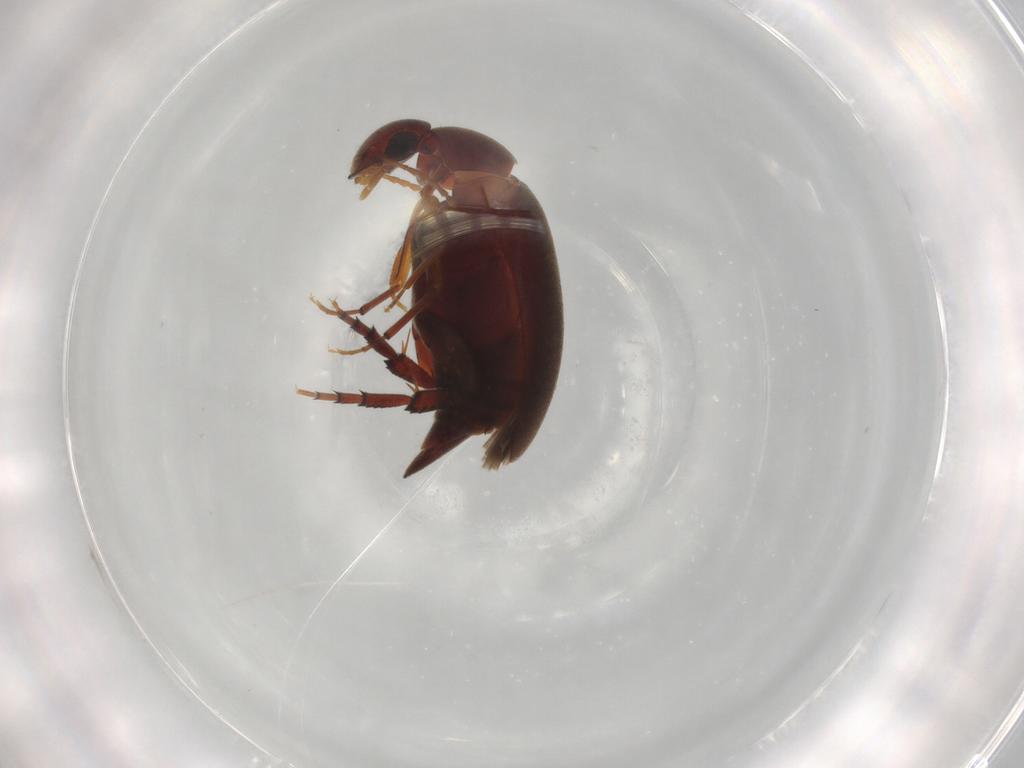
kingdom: Animalia
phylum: Arthropoda
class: Insecta
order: Coleoptera
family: Mordellidae
